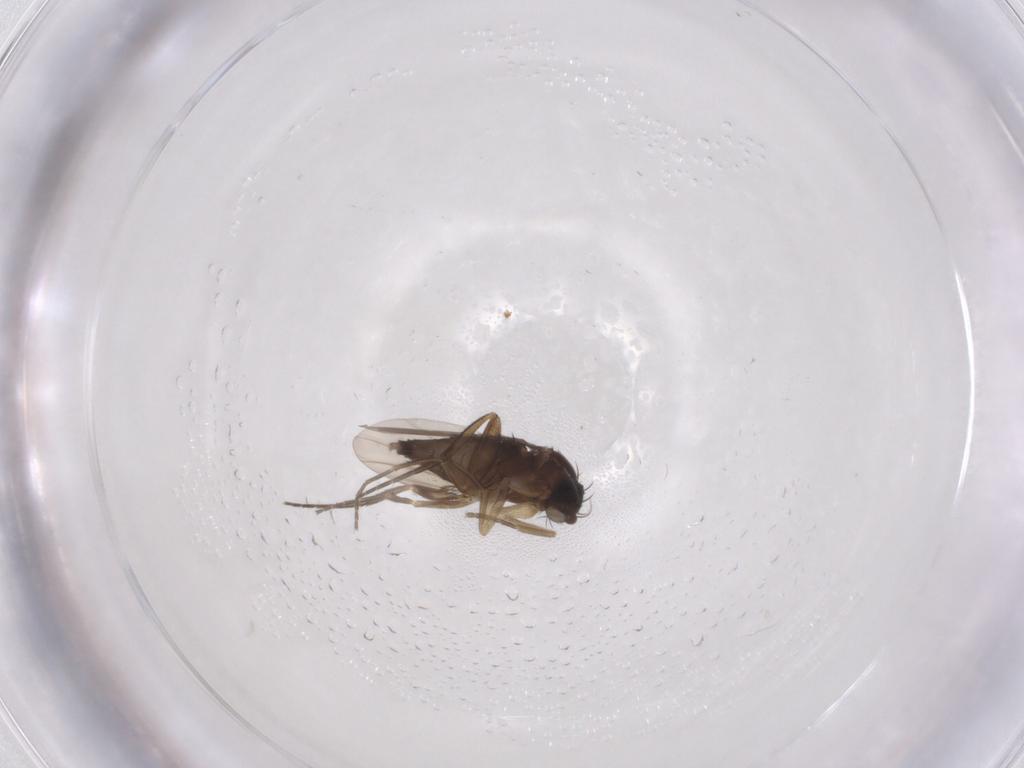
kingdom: Animalia
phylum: Arthropoda
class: Insecta
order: Diptera
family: Phoridae
